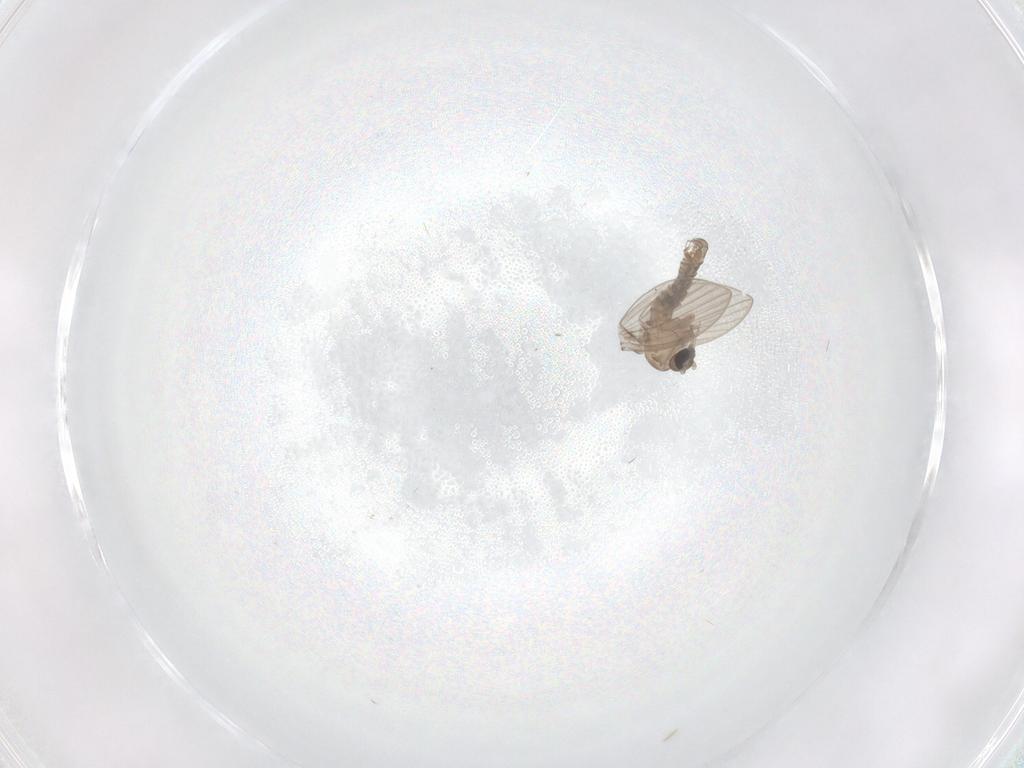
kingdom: Animalia
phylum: Arthropoda
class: Insecta
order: Diptera
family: Psychodidae
